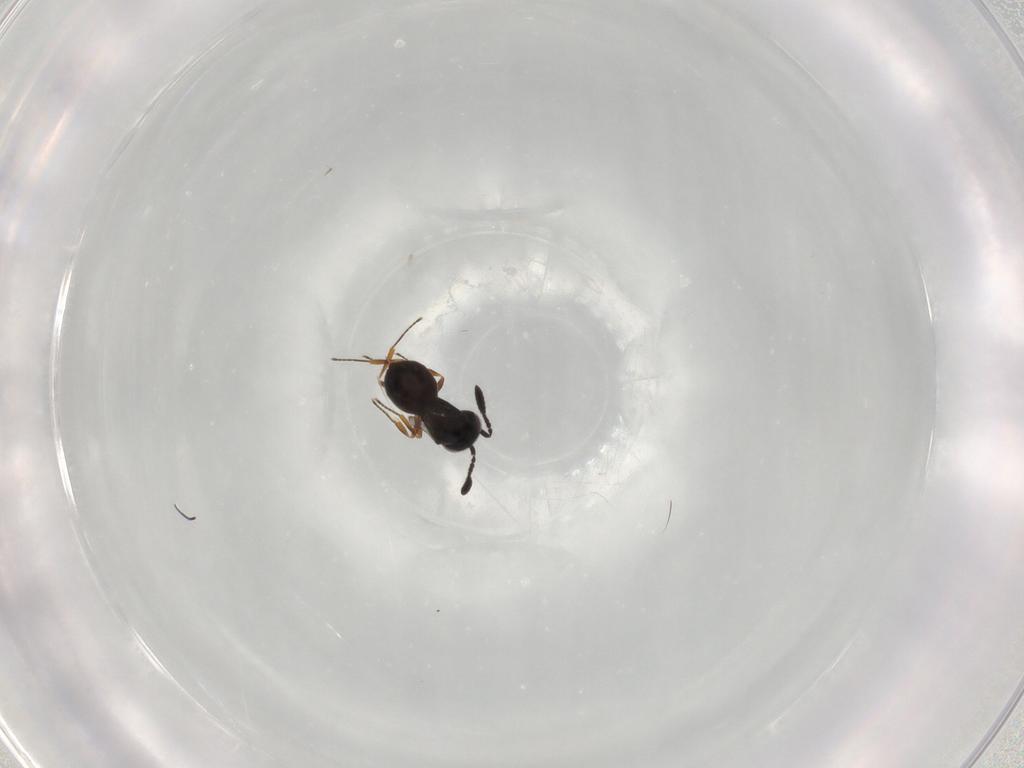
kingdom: Animalia
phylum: Arthropoda
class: Insecta
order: Hymenoptera
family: Scelionidae
